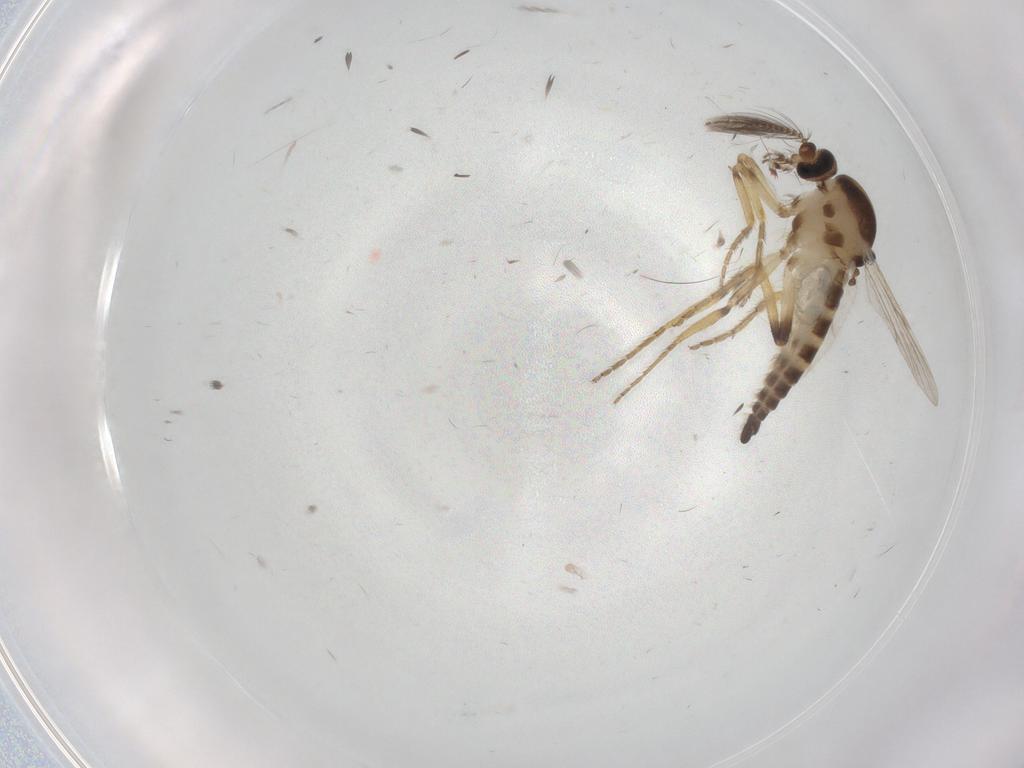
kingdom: Animalia
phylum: Arthropoda
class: Insecta
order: Diptera
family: Ceratopogonidae
